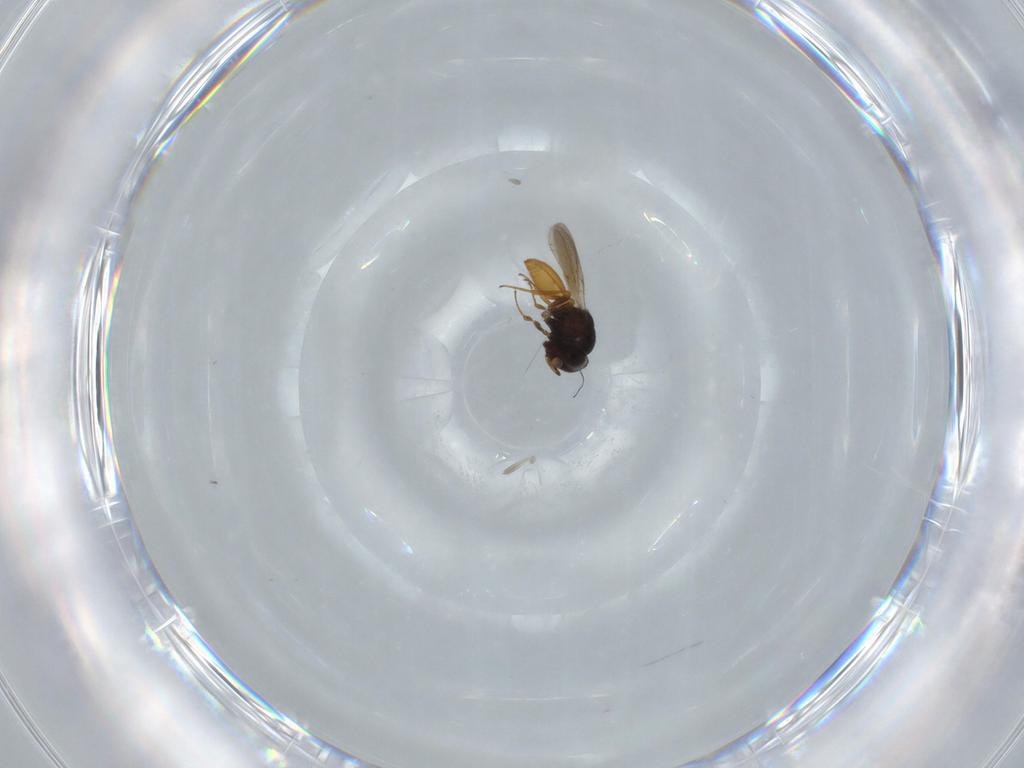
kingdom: Animalia
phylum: Arthropoda
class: Insecta
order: Hymenoptera
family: Scelionidae
